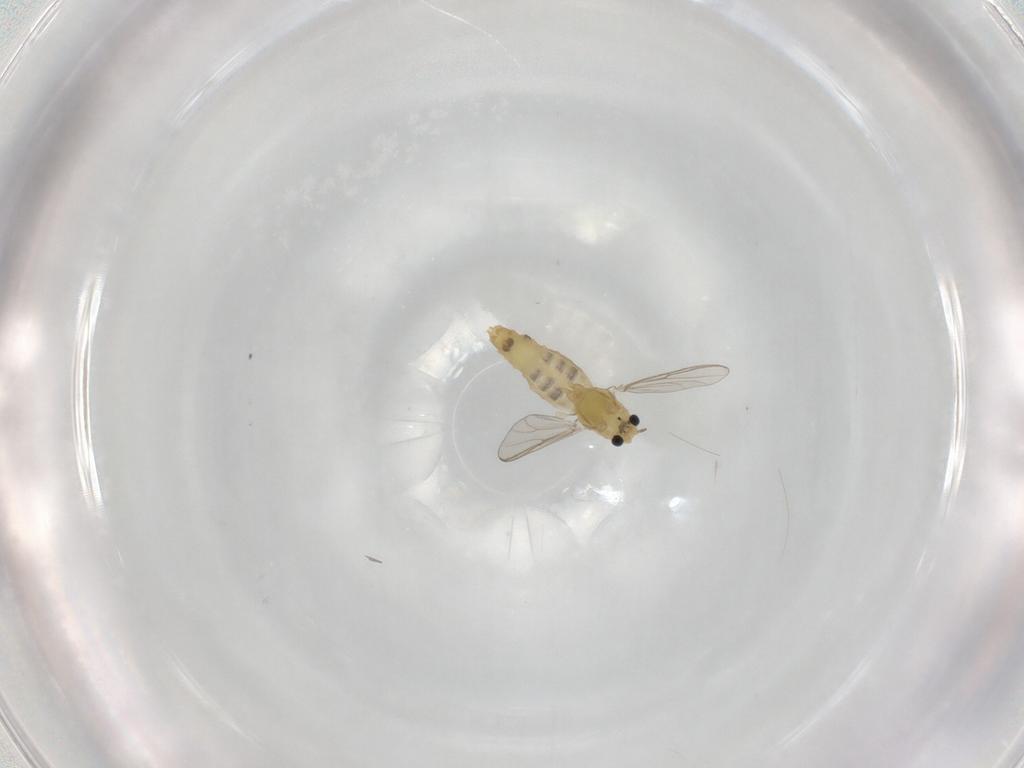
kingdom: Animalia
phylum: Arthropoda
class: Insecta
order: Diptera
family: Chironomidae
